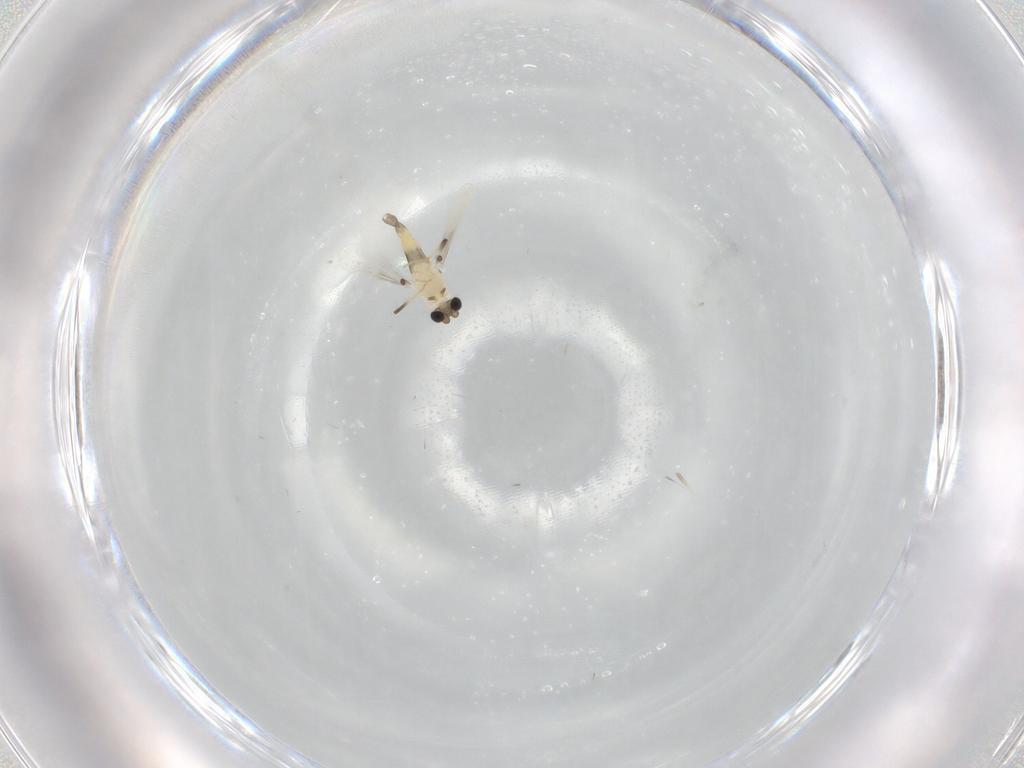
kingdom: Animalia
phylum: Arthropoda
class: Insecta
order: Diptera
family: Chironomidae
